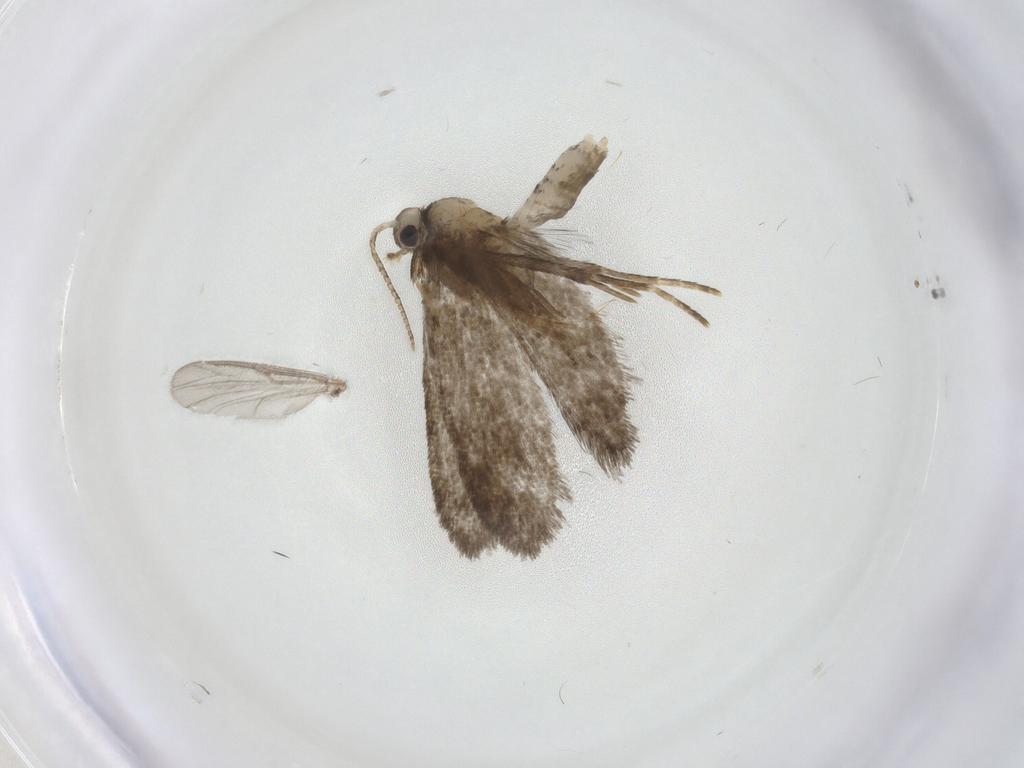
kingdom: Animalia
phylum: Arthropoda
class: Insecta
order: Lepidoptera
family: Psychidae
